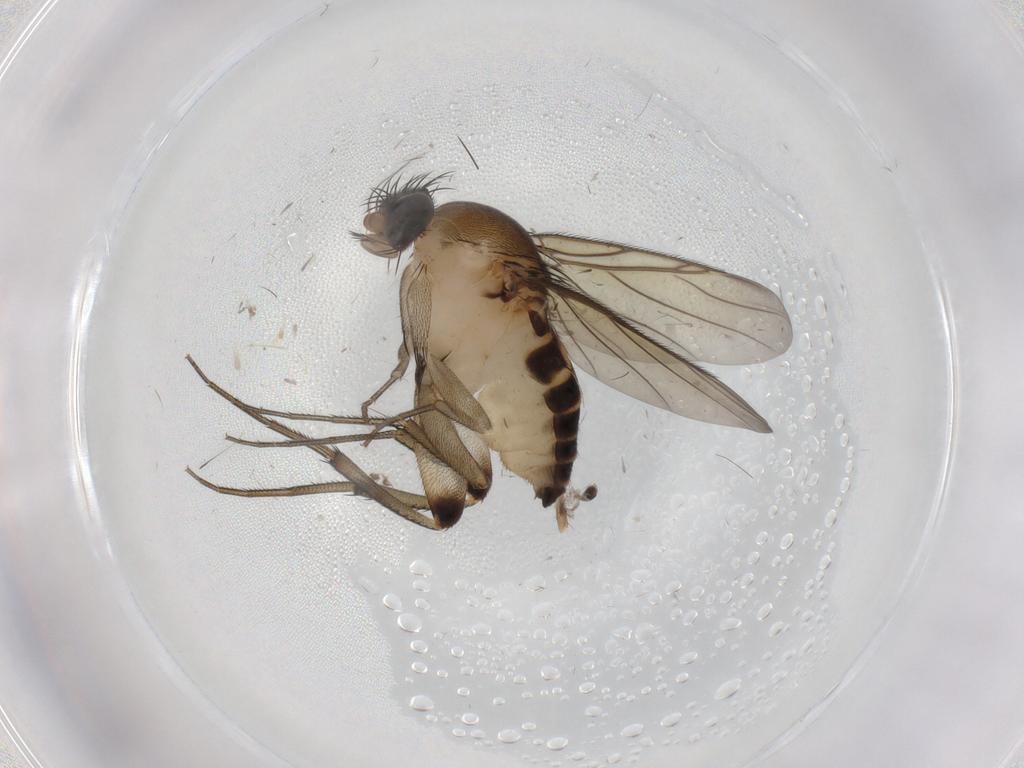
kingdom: Animalia
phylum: Arthropoda
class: Insecta
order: Diptera
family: Phoridae
